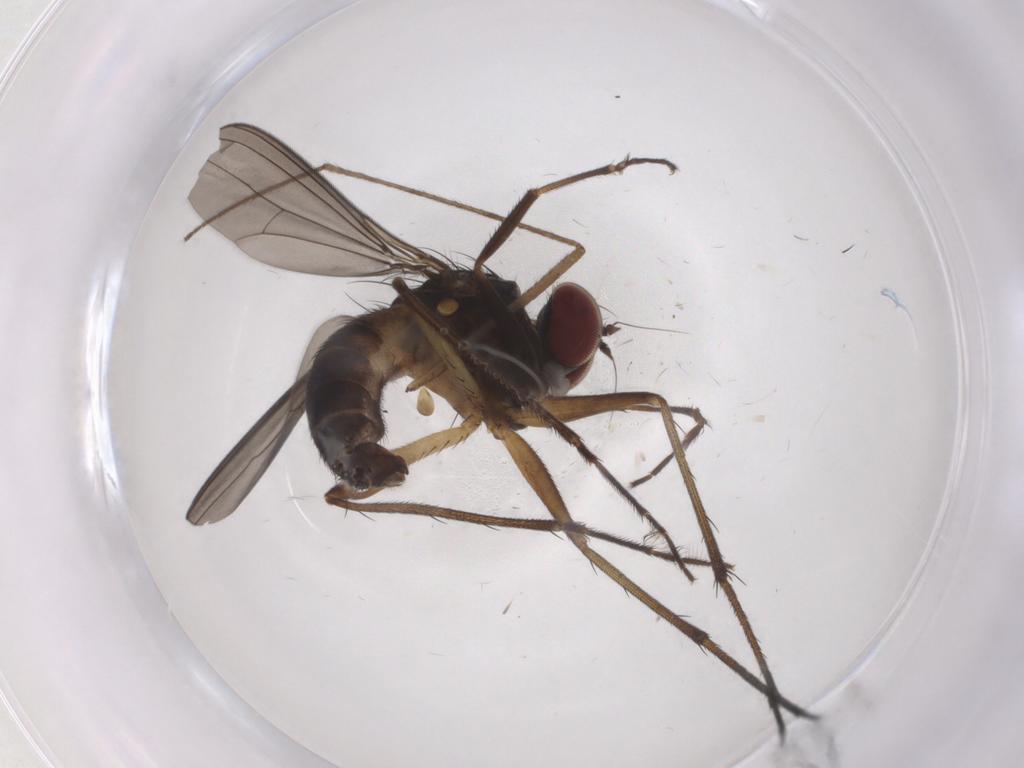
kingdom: Animalia
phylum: Arthropoda
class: Insecta
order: Diptera
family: Dolichopodidae
